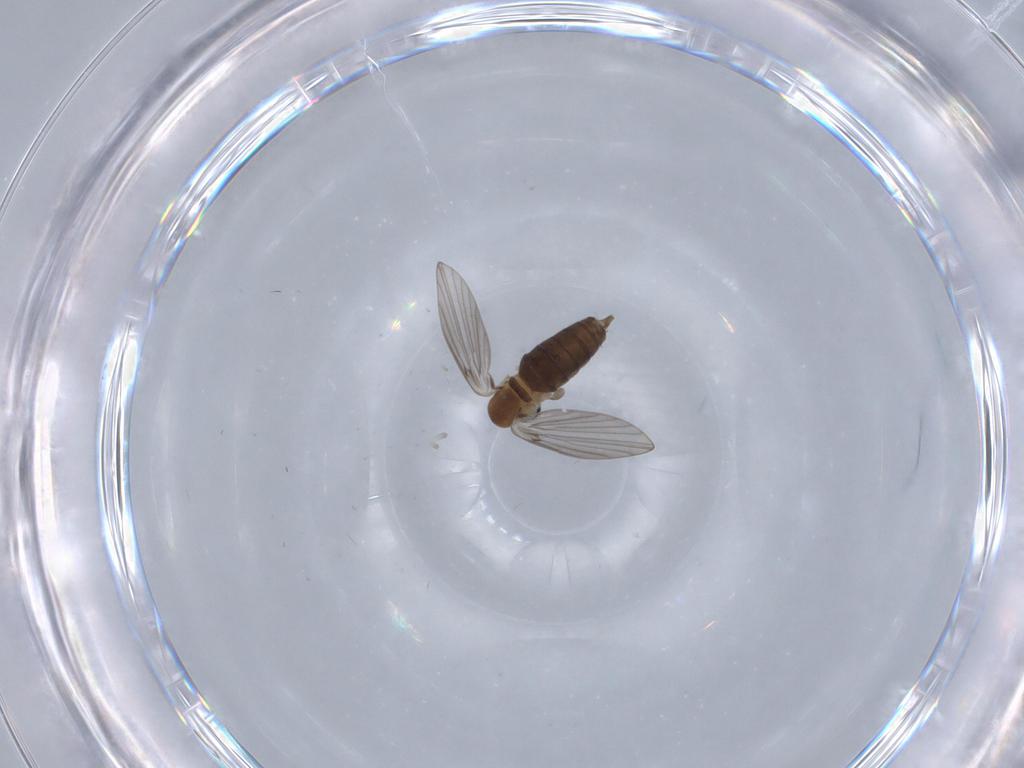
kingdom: Animalia
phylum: Arthropoda
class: Insecta
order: Diptera
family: Psychodidae
